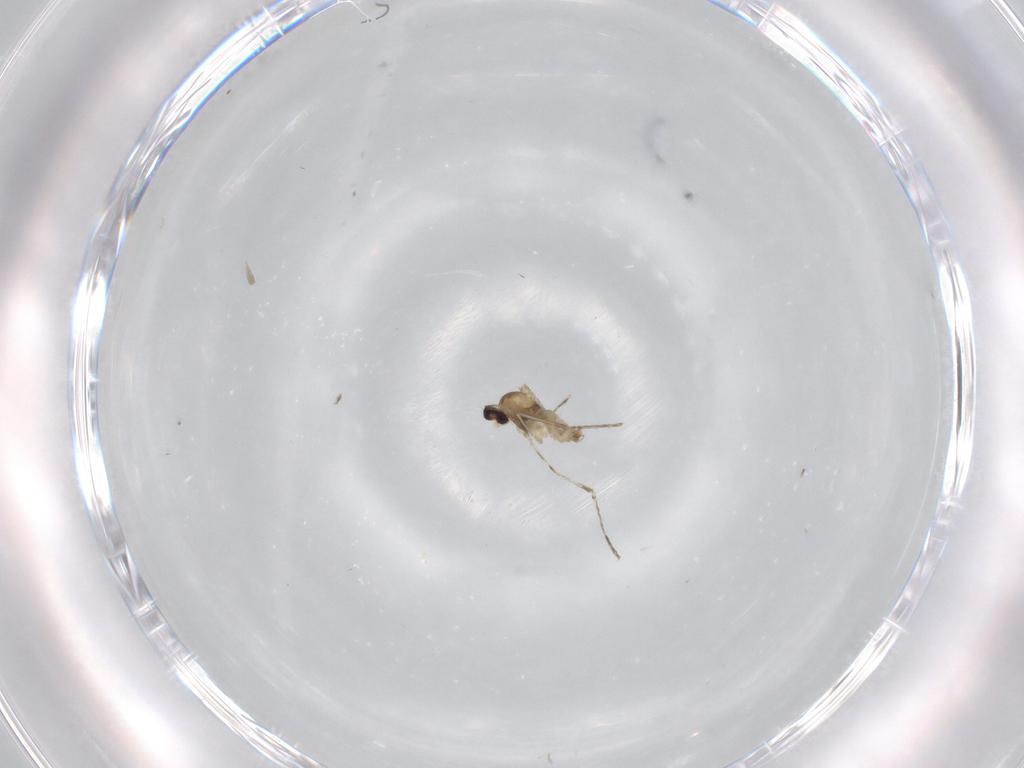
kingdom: Animalia
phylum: Arthropoda
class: Insecta
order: Diptera
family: Cecidomyiidae
